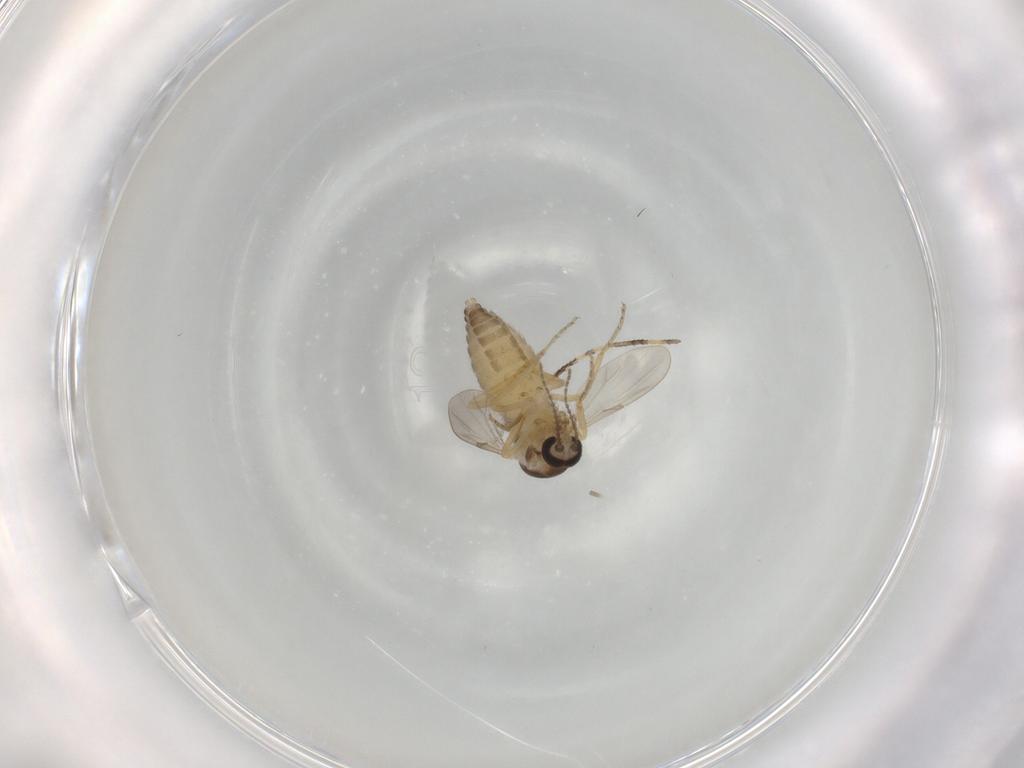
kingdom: Animalia
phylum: Arthropoda
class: Insecta
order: Diptera
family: Ceratopogonidae
